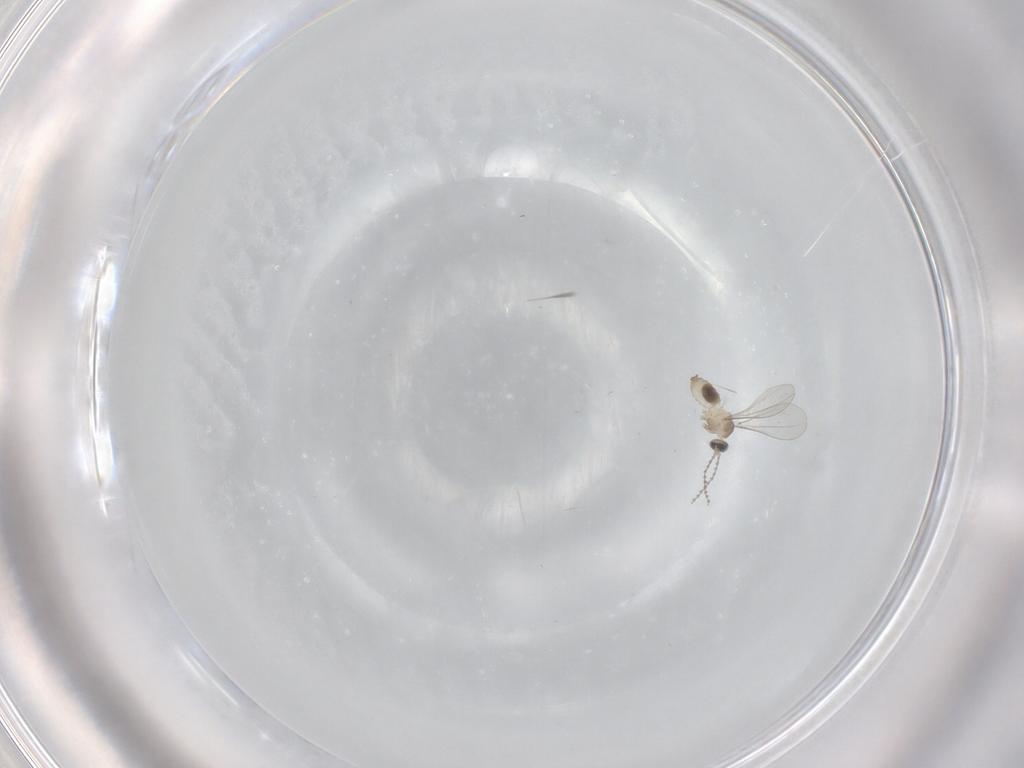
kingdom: Animalia
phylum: Arthropoda
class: Insecta
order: Diptera
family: Cecidomyiidae
